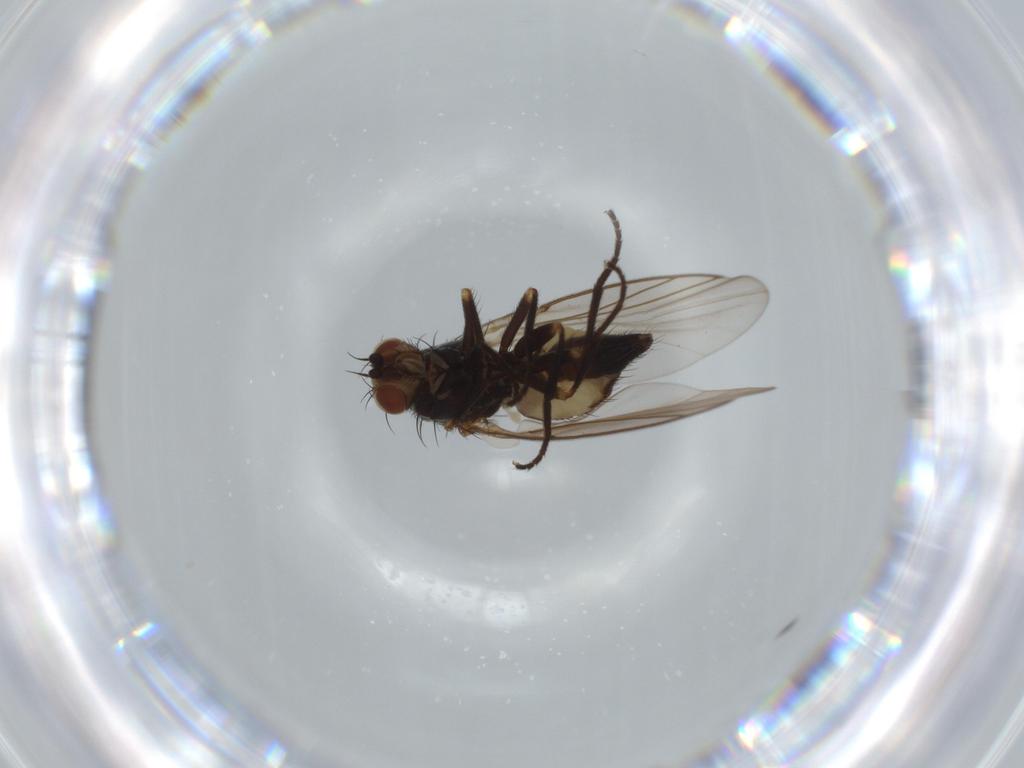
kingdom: Animalia
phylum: Arthropoda
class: Insecta
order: Diptera
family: Agromyzidae
